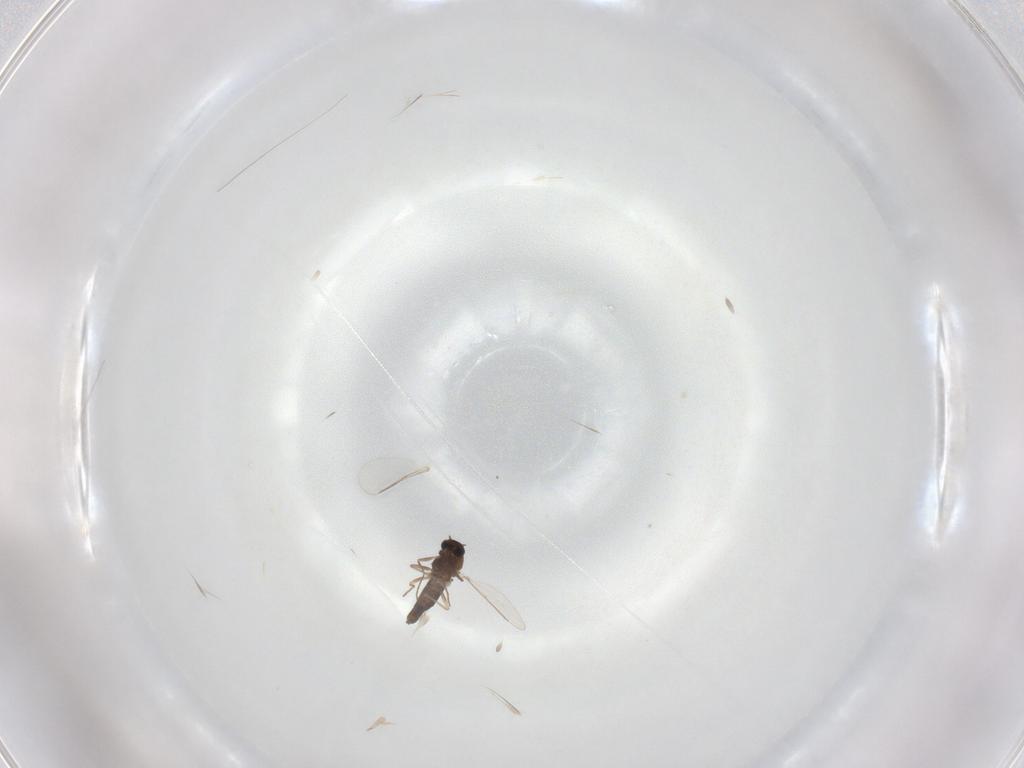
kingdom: Animalia
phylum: Arthropoda
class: Insecta
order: Diptera
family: Chironomidae
